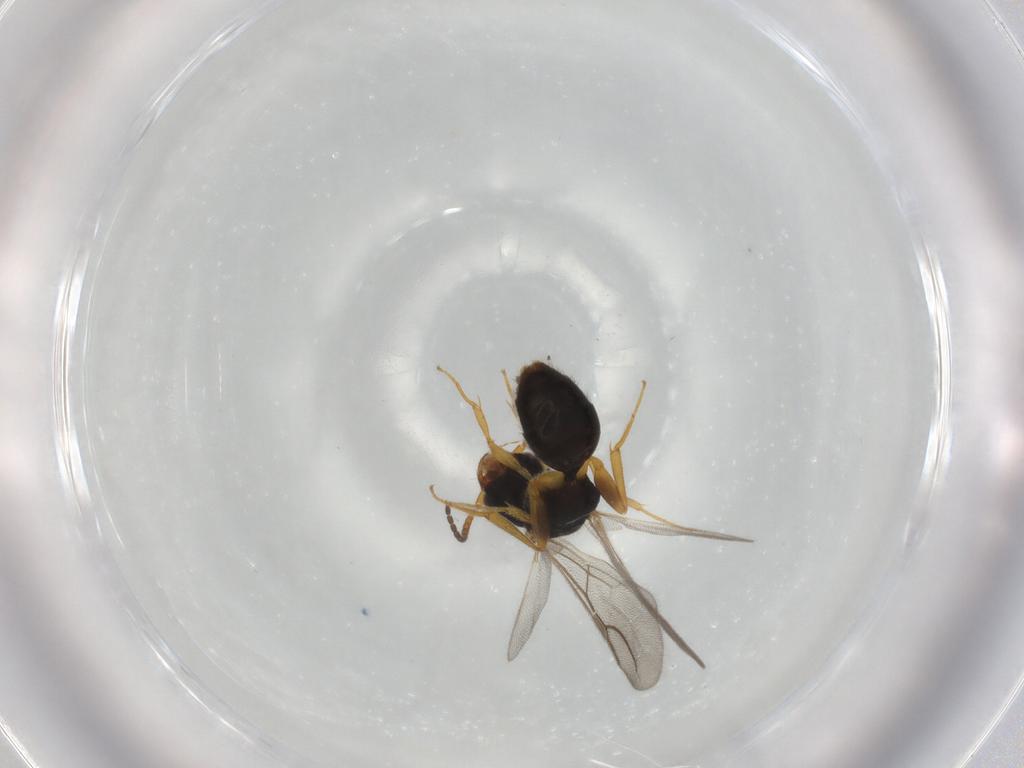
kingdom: Animalia
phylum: Arthropoda
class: Insecta
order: Hymenoptera
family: Bethylidae
